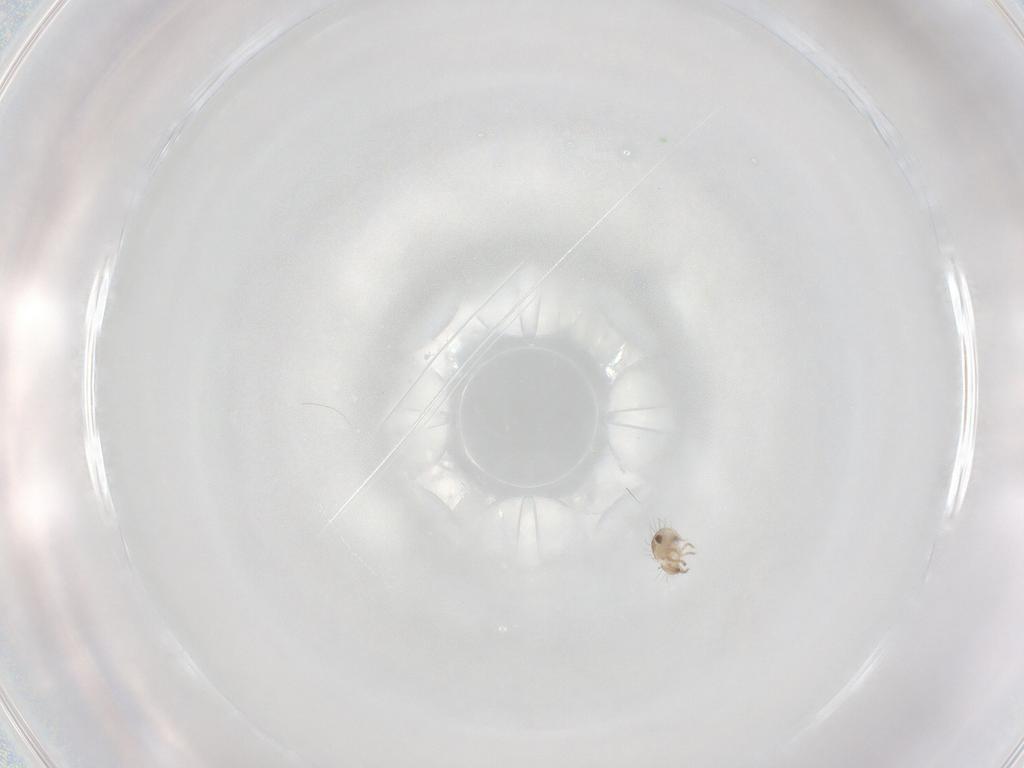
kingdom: Animalia
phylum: Arthropoda
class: Arachnida
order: Sarcoptiformes
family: Humerobatidae
